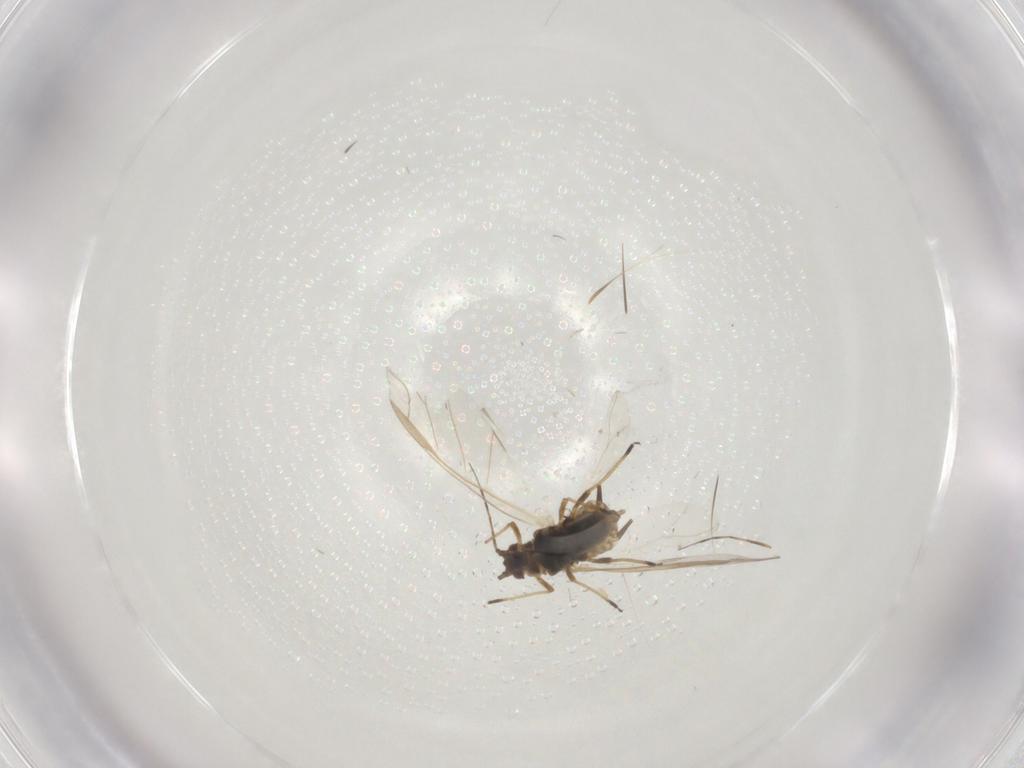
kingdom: Animalia
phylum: Arthropoda
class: Insecta
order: Hemiptera
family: Aphididae
